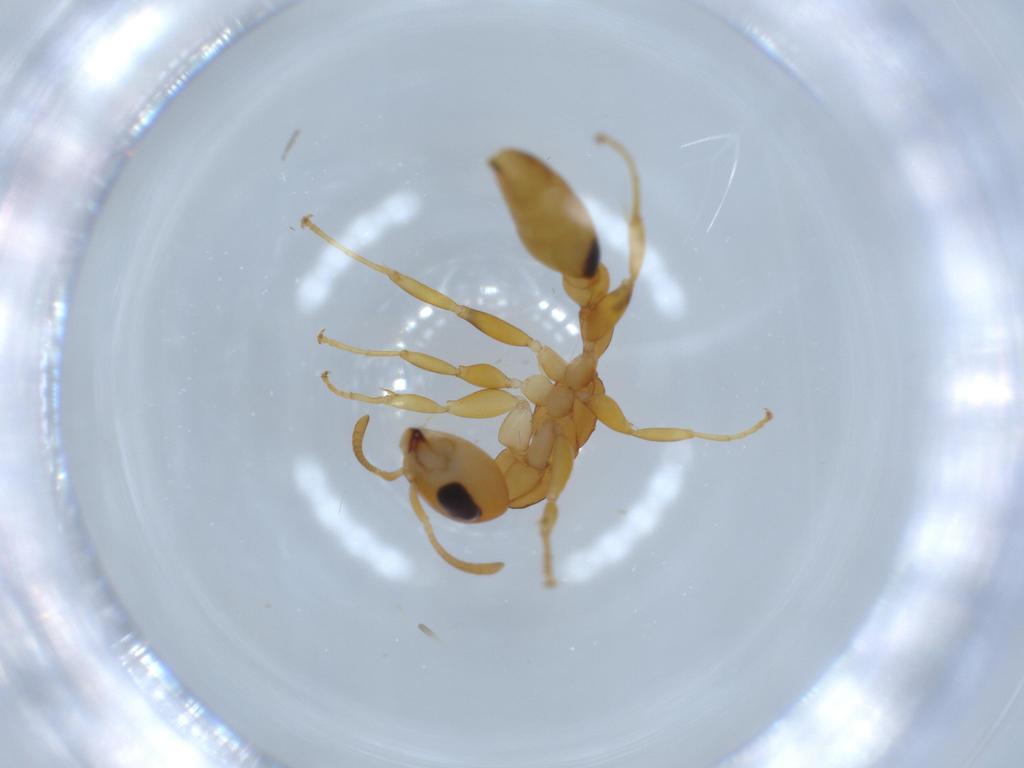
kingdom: Animalia
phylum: Arthropoda
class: Insecta
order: Hymenoptera
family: Formicidae
